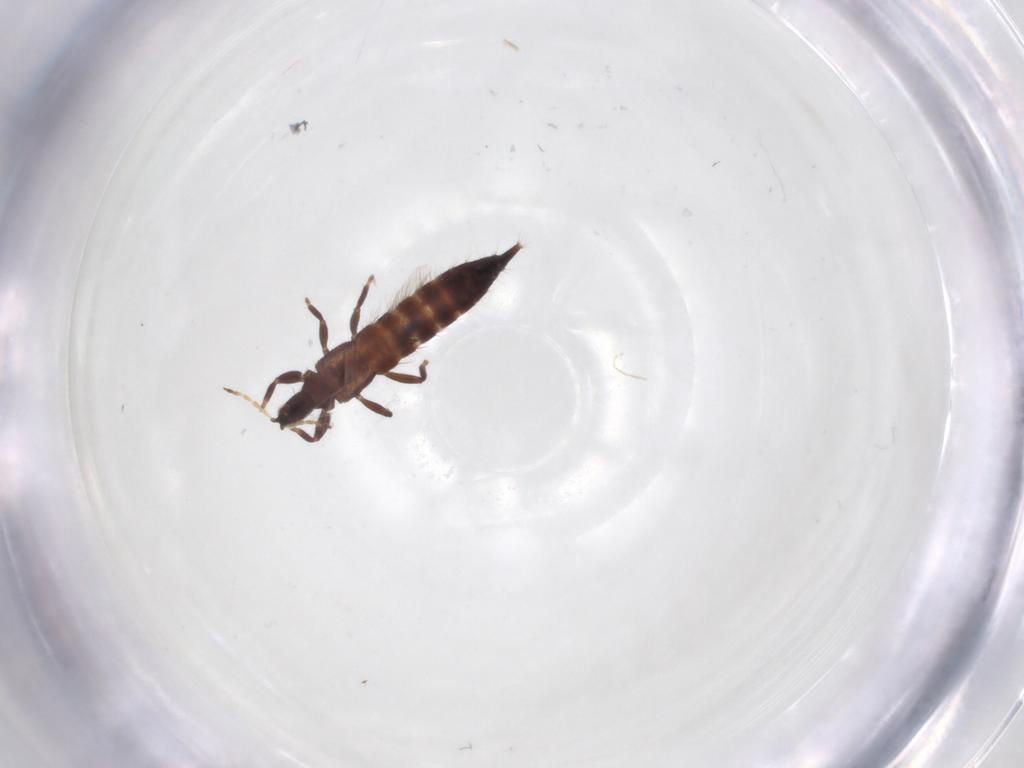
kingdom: Animalia
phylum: Arthropoda
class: Insecta
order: Thysanoptera
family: Phlaeothripidae
